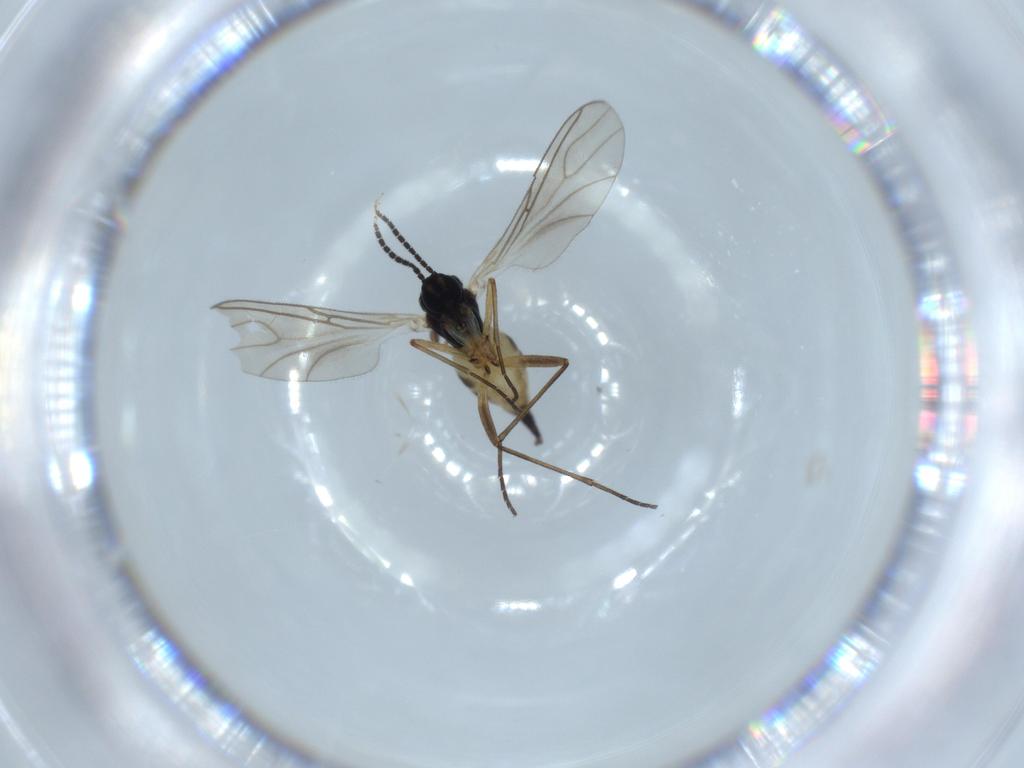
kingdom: Animalia
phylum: Arthropoda
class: Insecta
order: Diptera
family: Sciaridae
